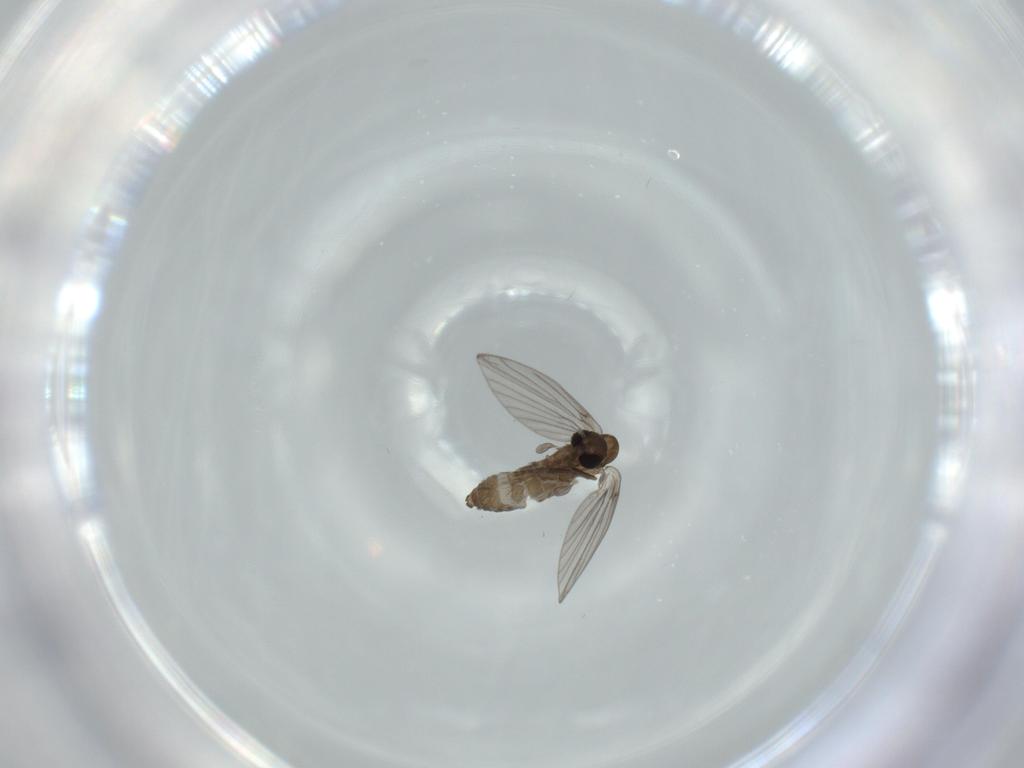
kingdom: Animalia
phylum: Arthropoda
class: Insecta
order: Diptera
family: Psychodidae
